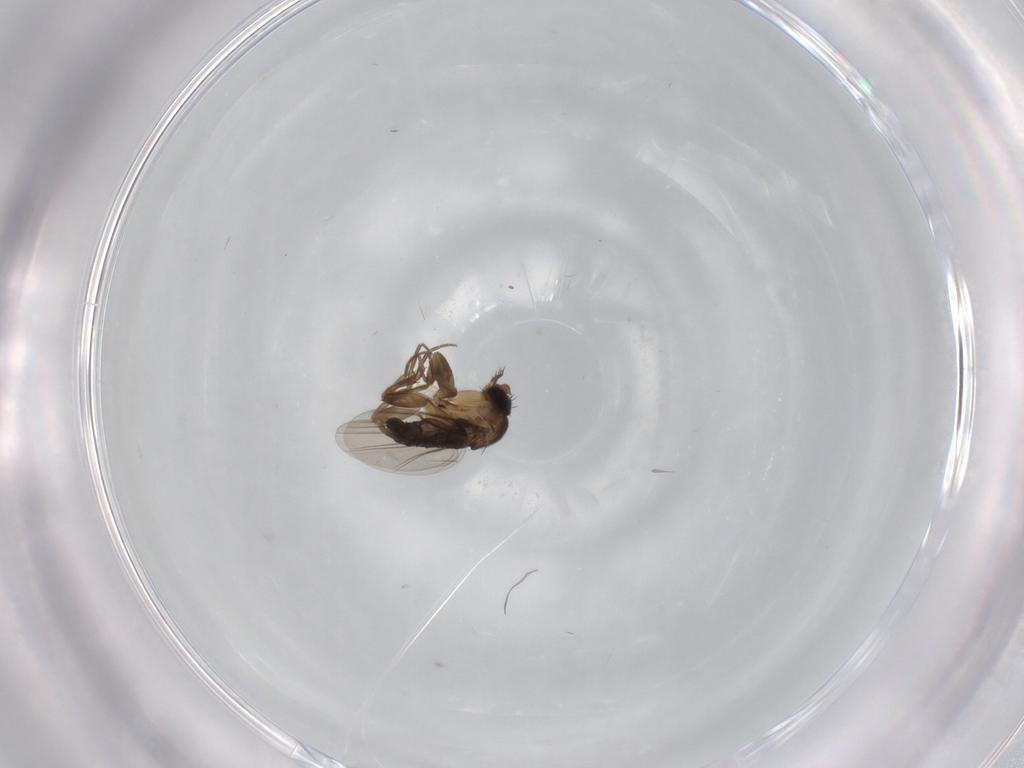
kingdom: Animalia
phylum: Arthropoda
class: Insecta
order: Diptera
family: Phoridae
